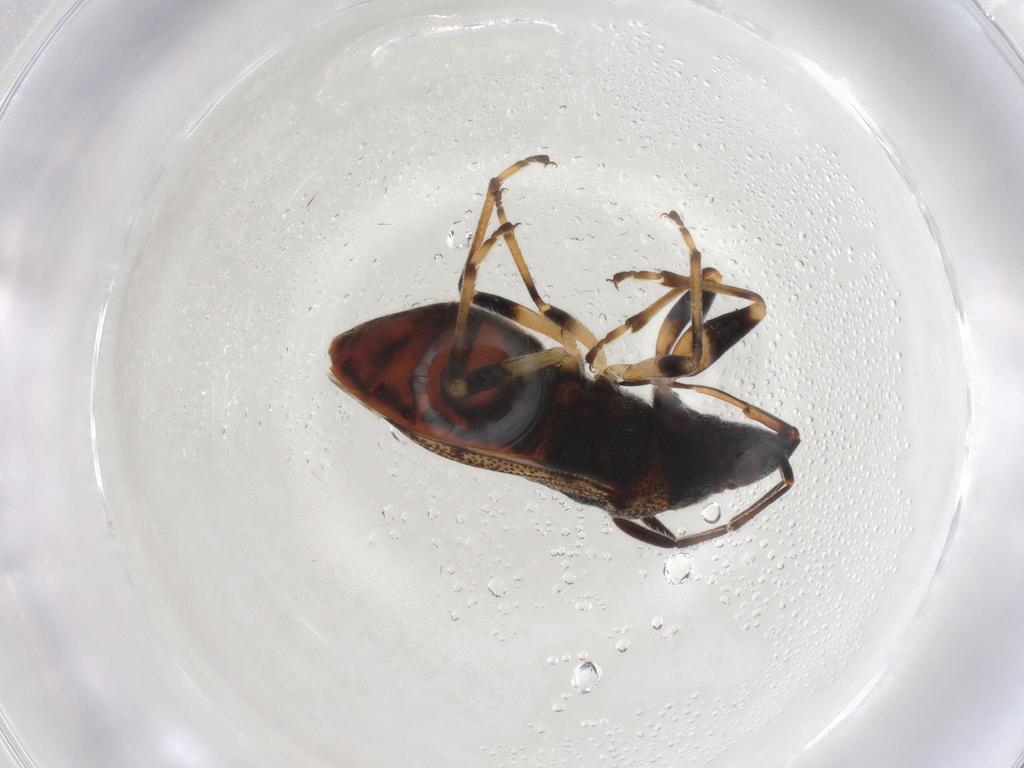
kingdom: Animalia
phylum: Arthropoda
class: Insecta
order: Hemiptera
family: Rhyparochromidae
